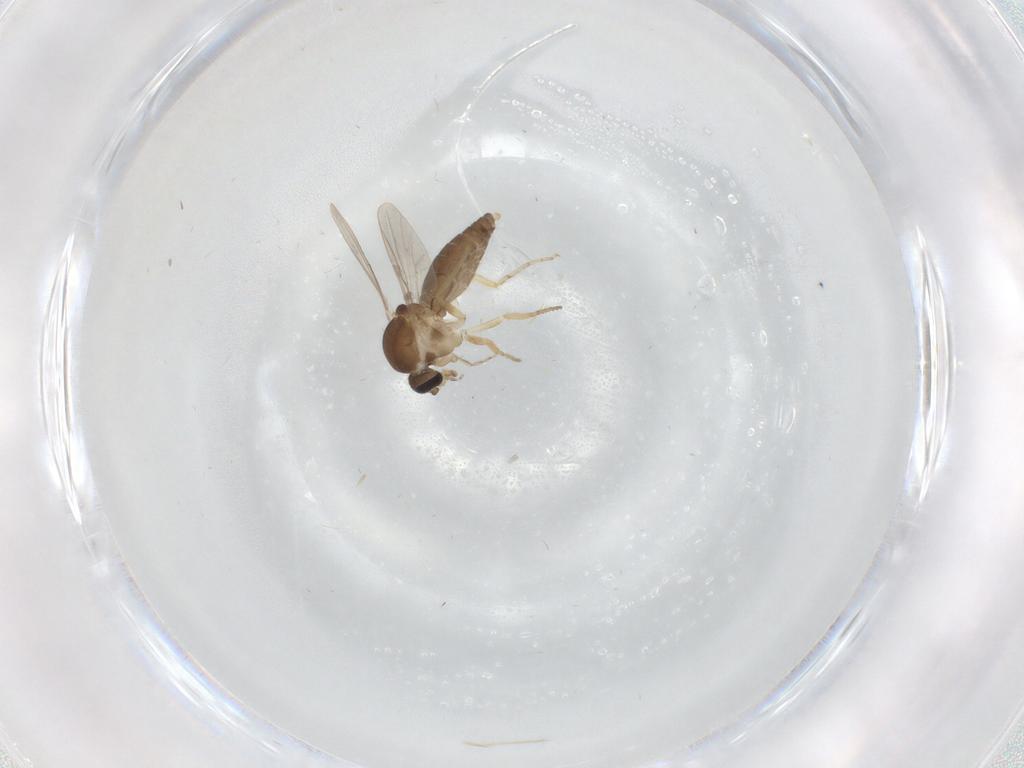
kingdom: Animalia
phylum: Arthropoda
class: Insecta
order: Diptera
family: Ceratopogonidae
